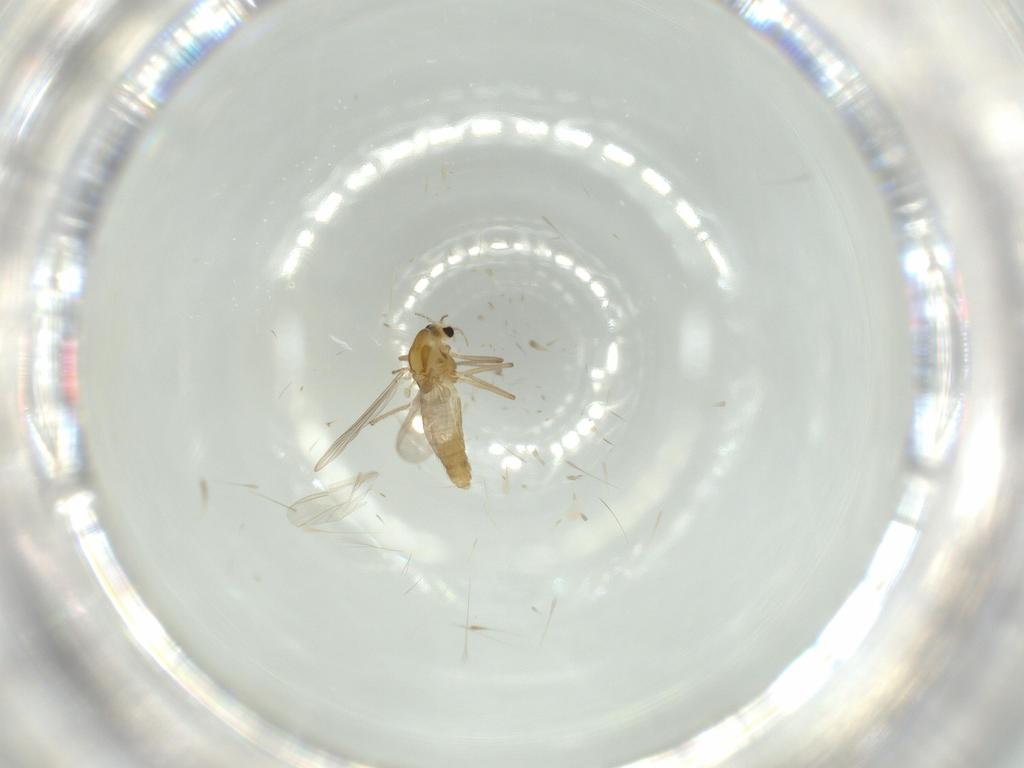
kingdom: Animalia
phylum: Arthropoda
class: Insecta
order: Diptera
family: Chironomidae
